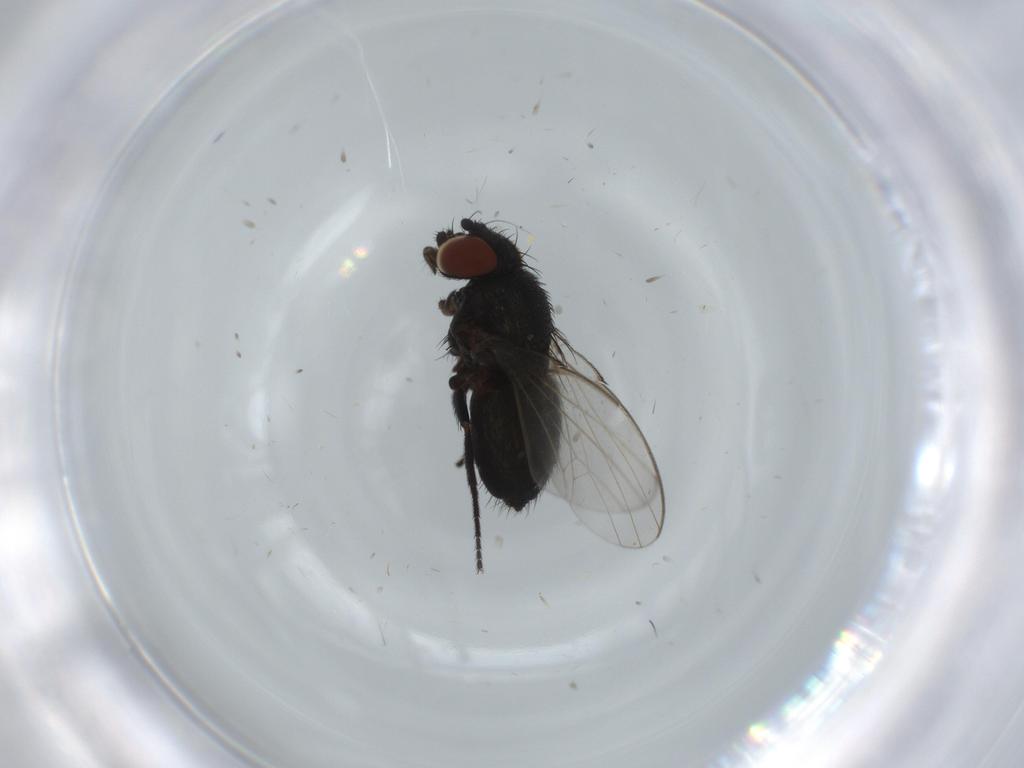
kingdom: Animalia
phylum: Arthropoda
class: Insecta
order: Diptera
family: Milichiidae
